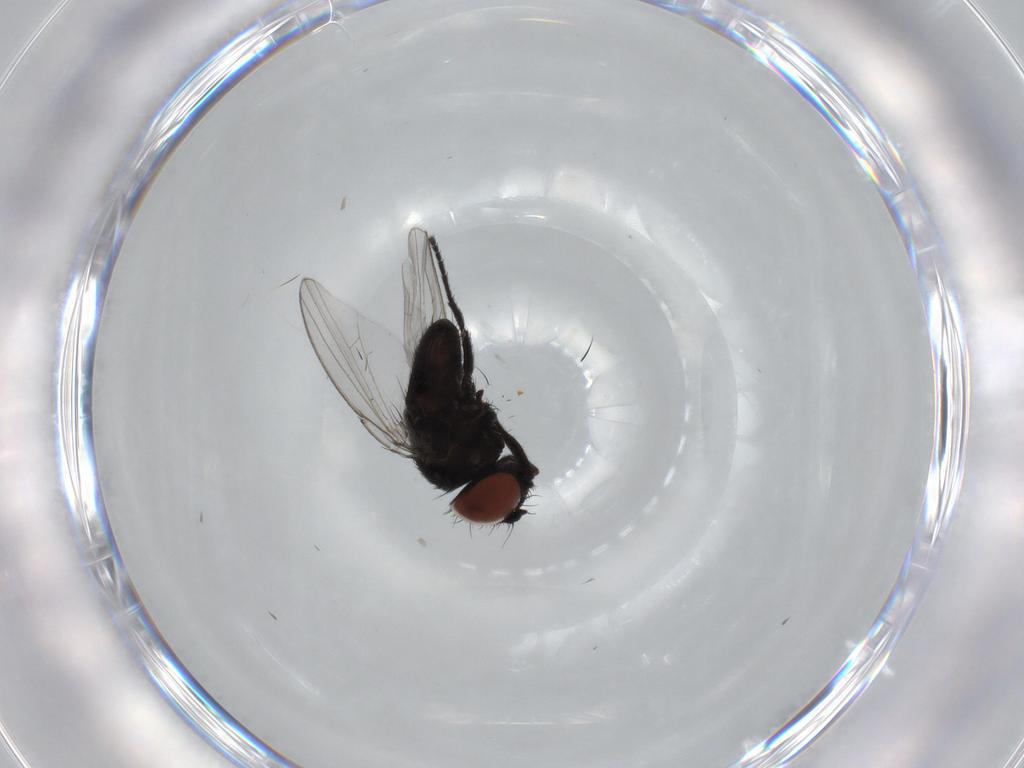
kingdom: Animalia
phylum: Arthropoda
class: Insecta
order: Diptera
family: Milichiidae
